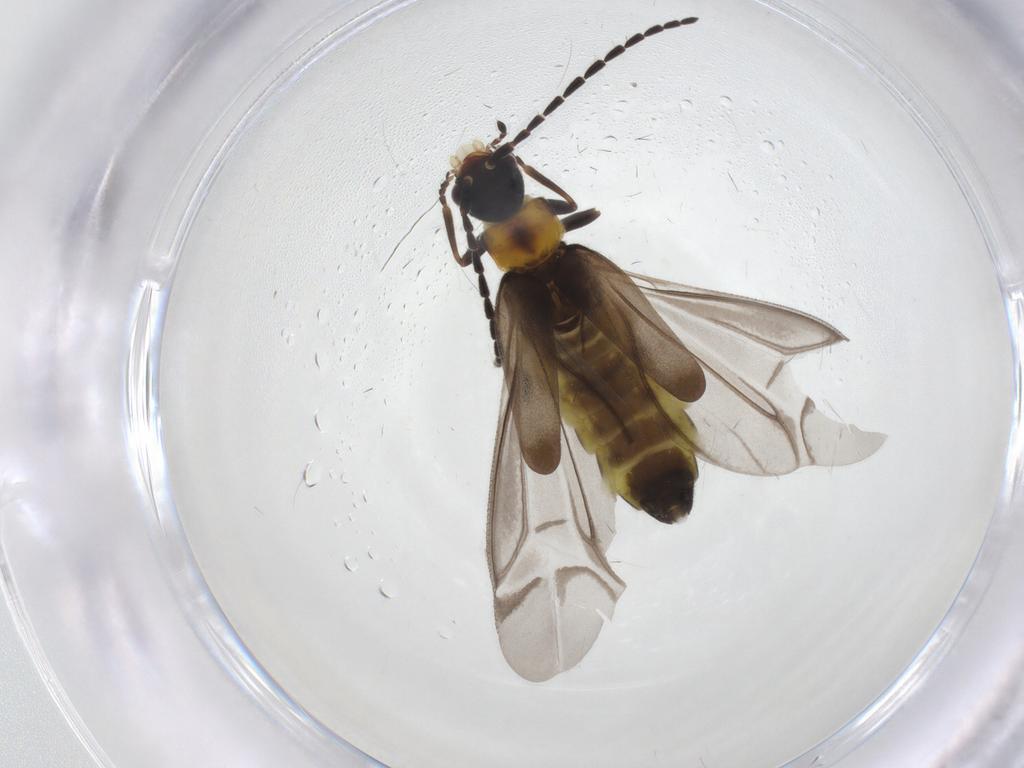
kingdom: Animalia
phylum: Arthropoda
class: Insecta
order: Coleoptera
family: Cantharidae
